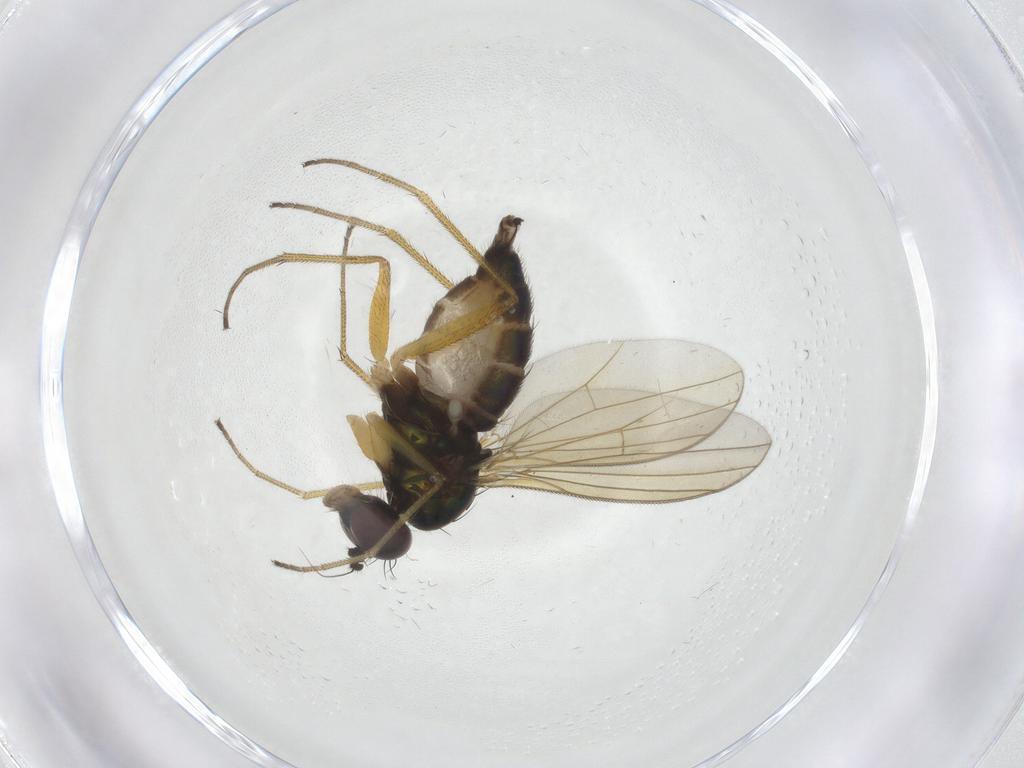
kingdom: Animalia
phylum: Arthropoda
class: Insecta
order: Diptera
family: Dolichopodidae
